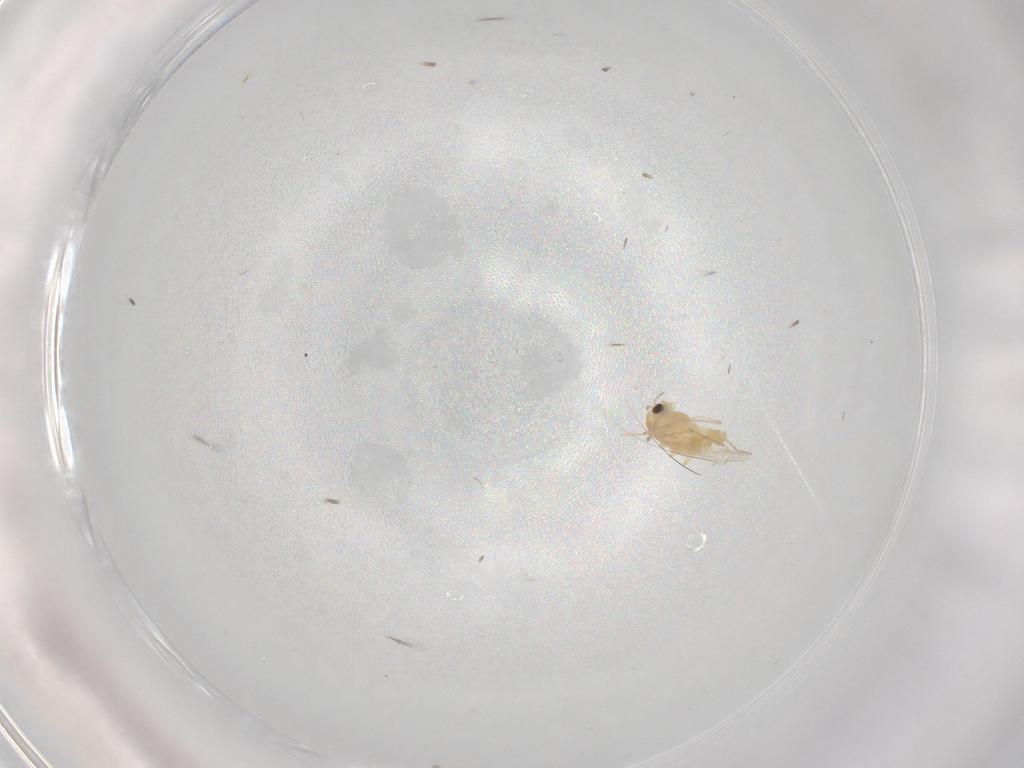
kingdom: Animalia
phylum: Arthropoda
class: Insecta
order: Diptera
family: Chironomidae
